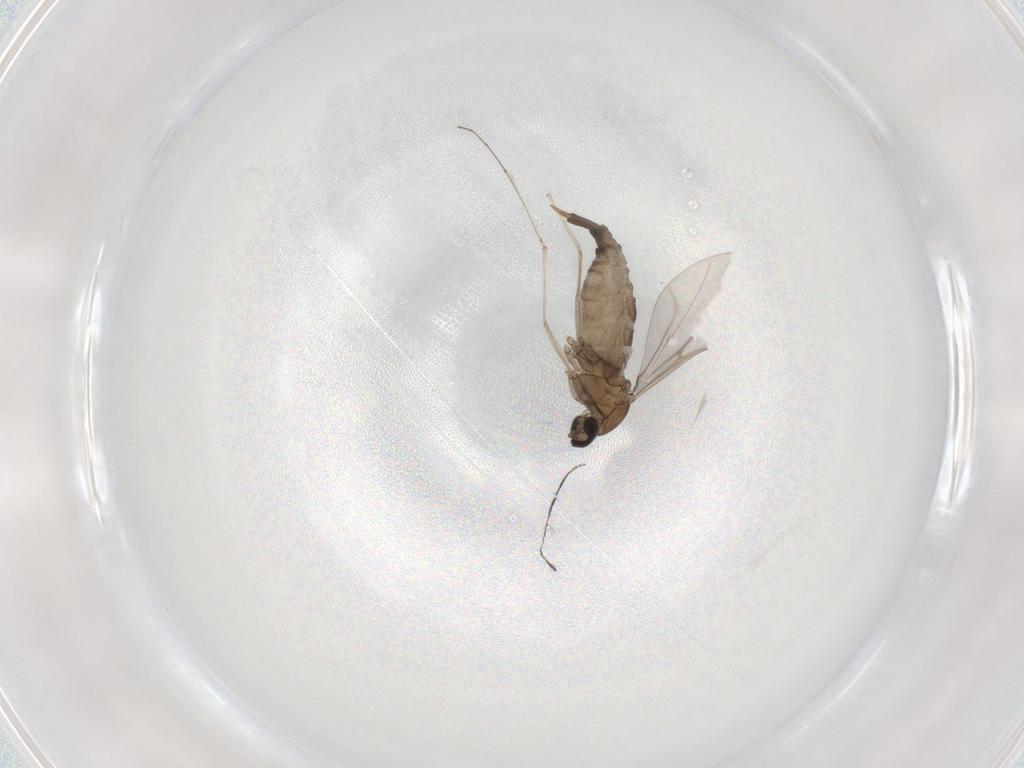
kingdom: Animalia
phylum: Arthropoda
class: Insecta
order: Diptera
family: Cecidomyiidae
